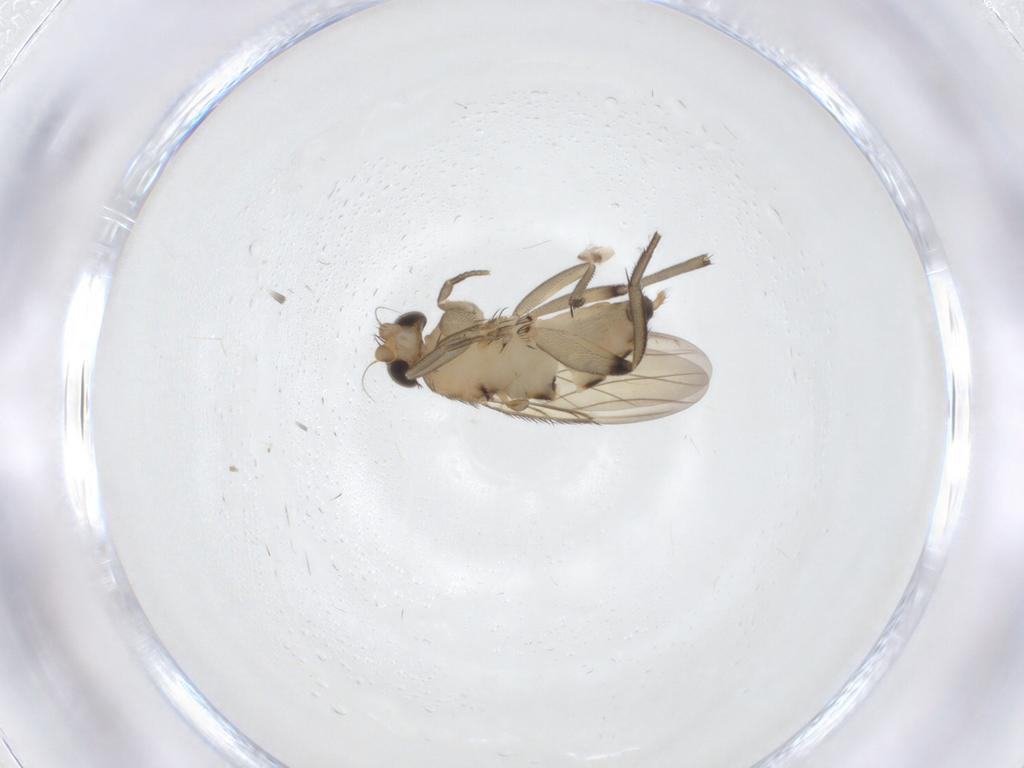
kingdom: Animalia
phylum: Arthropoda
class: Insecta
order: Diptera
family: Phoridae
